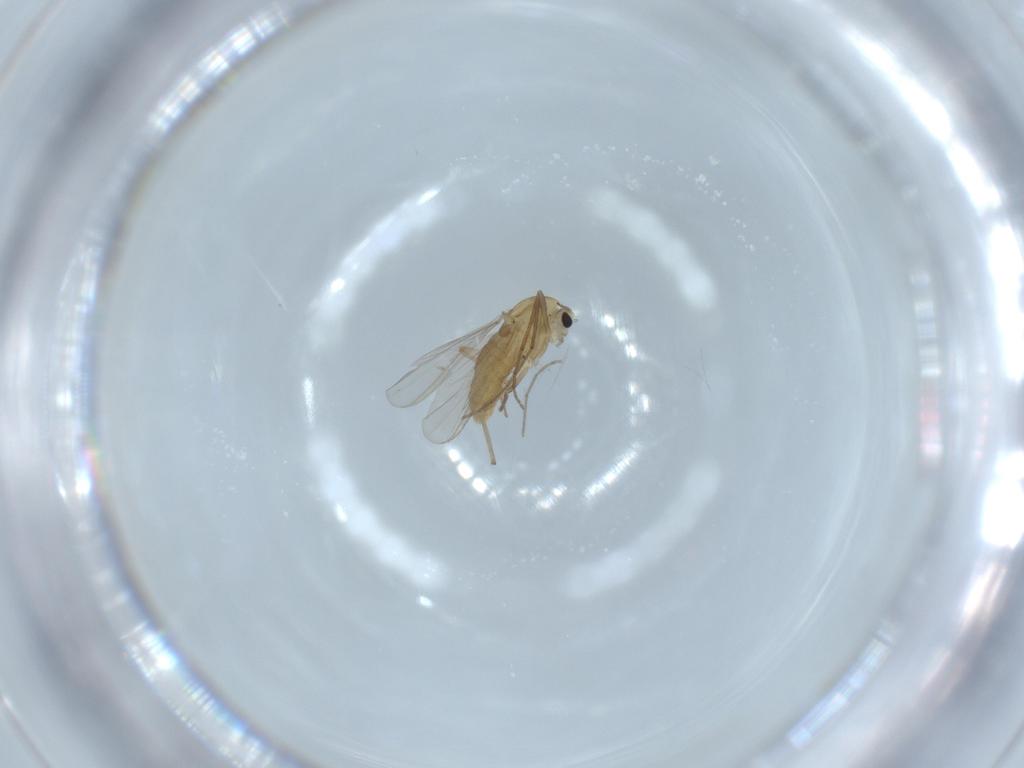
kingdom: Animalia
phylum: Arthropoda
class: Insecta
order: Diptera
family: Chironomidae
